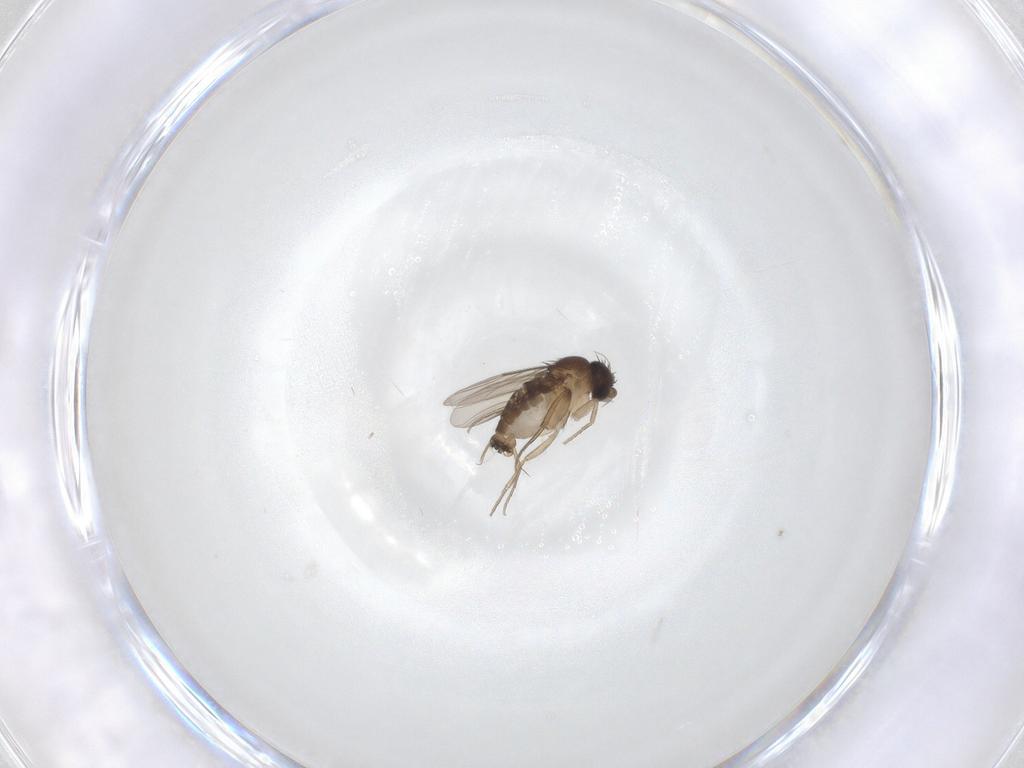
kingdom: Animalia
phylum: Arthropoda
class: Insecta
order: Diptera
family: Phoridae
